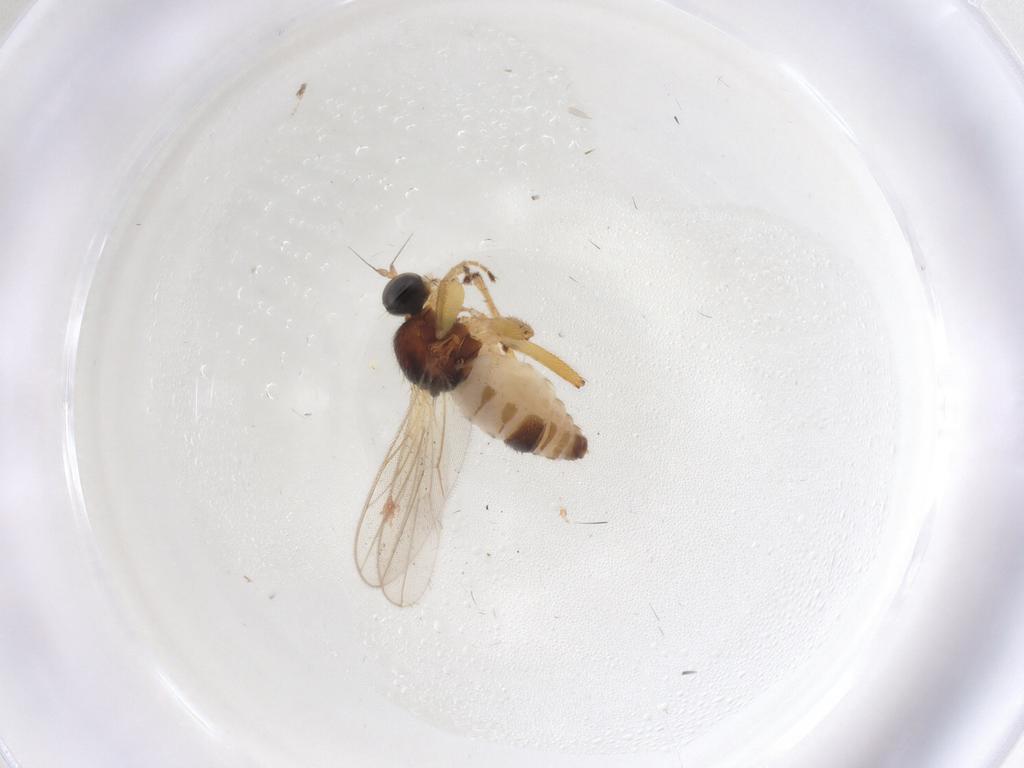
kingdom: Animalia
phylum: Arthropoda
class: Insecta
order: Diptera
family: Hybotidae
